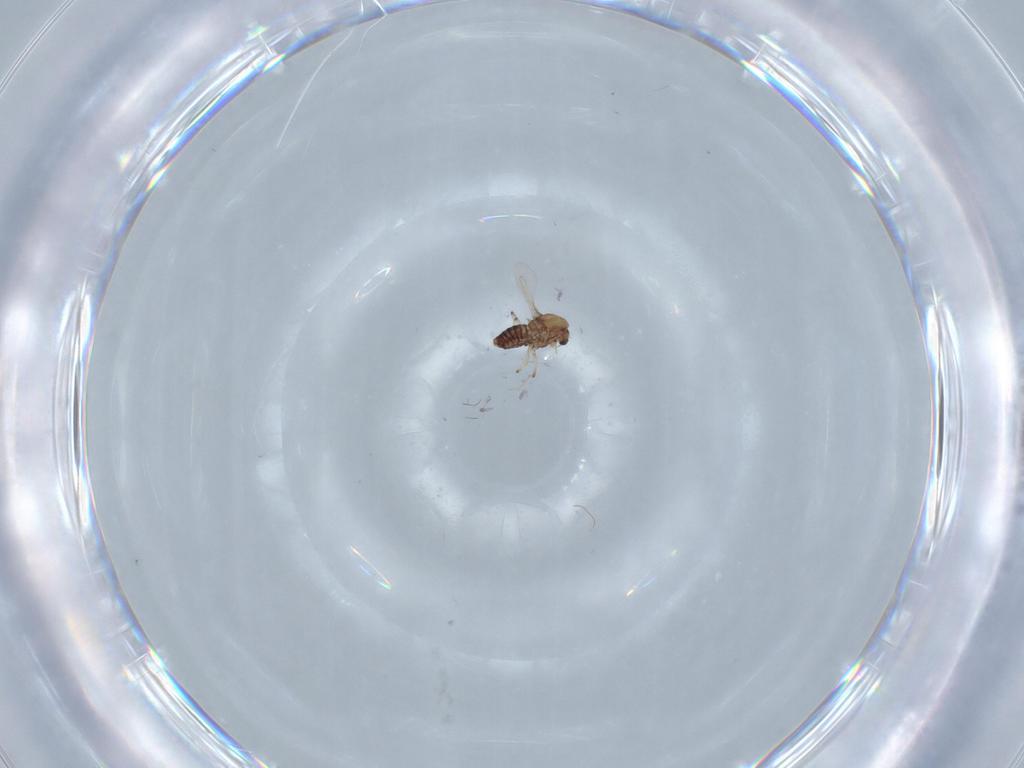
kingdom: Animalia
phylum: Arthropoda
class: Insecta
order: Diptera
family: Chironomidae
